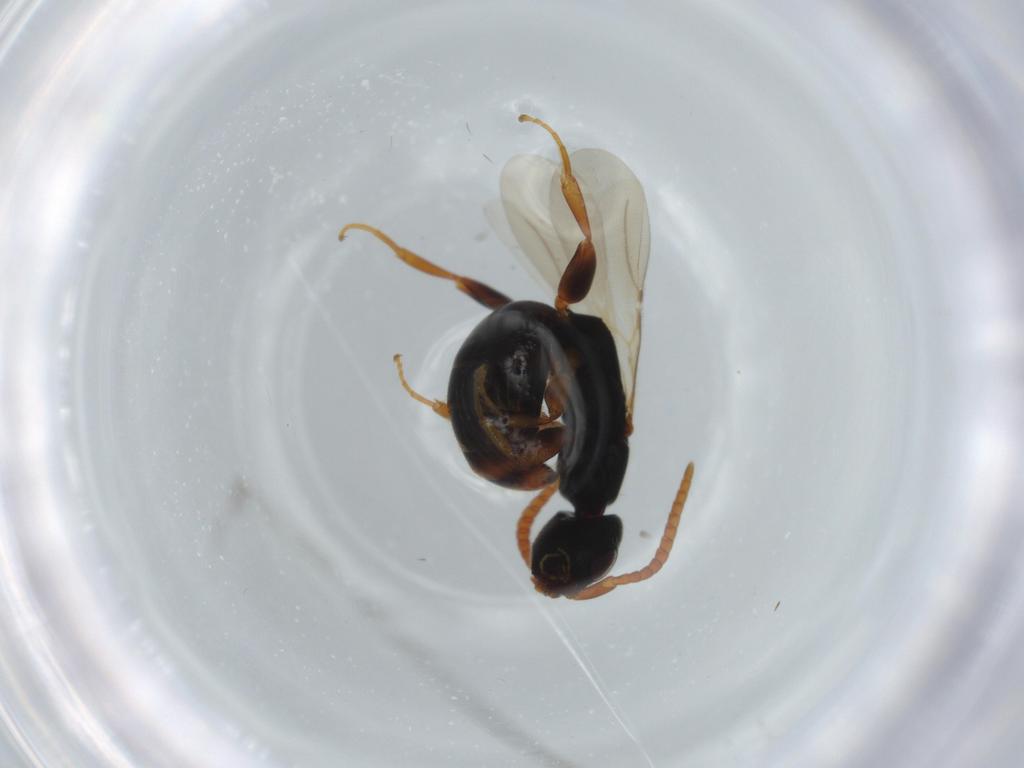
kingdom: Animalia
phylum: Arthropoda
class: Insecta
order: Hymenoptera
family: Bethylidae
